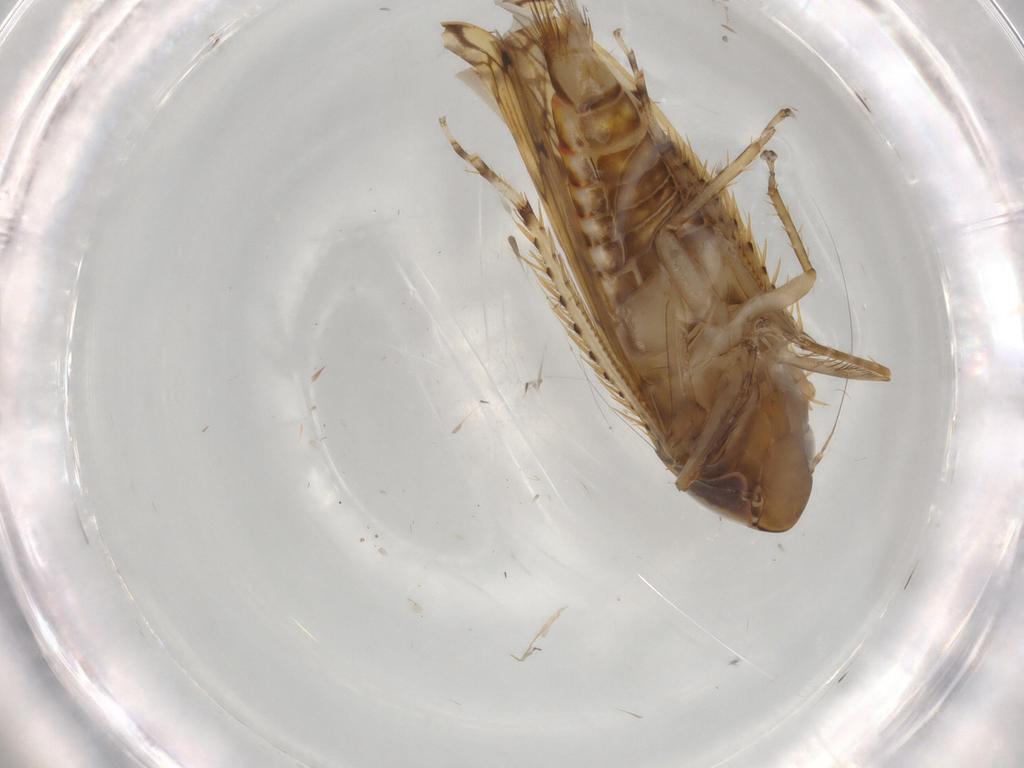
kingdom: Animalia
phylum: Arthropoda
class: Insecta
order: Hemiptera
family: Cicadellidae
